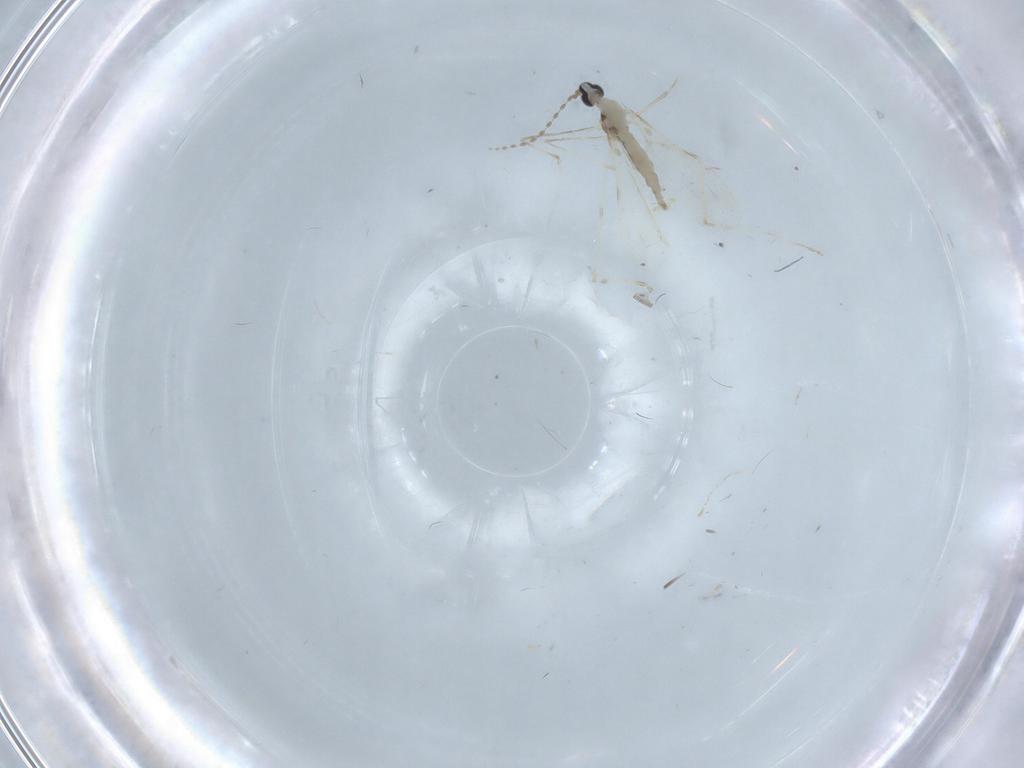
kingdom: Animalia
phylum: Arthropoda
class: Insecta
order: Diptera
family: Cecidomyiidae
